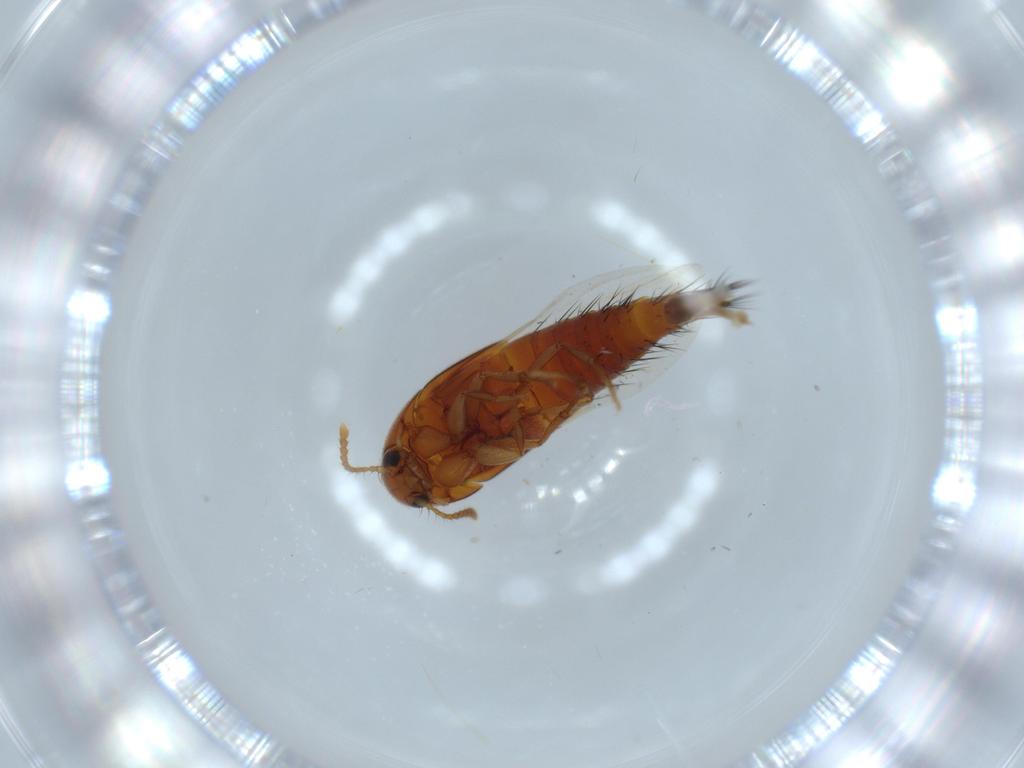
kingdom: Animalia
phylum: Arthropoda
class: Insecta
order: Coleoptera
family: Staphylinidae
